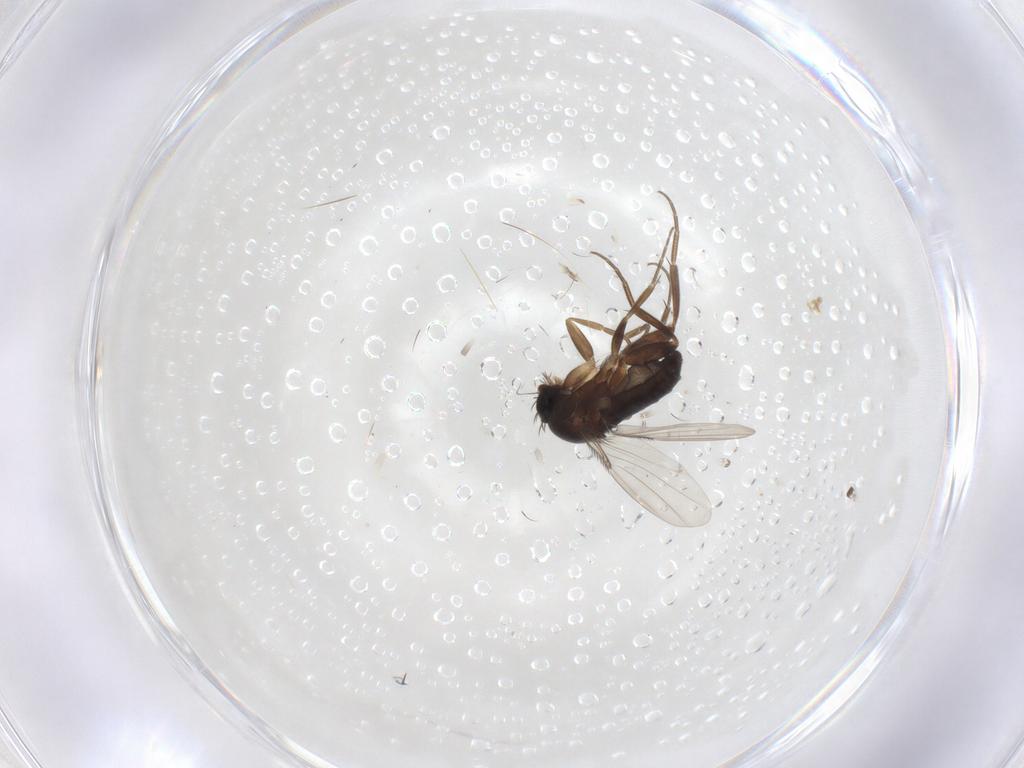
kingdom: Animalia
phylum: Arthropoda
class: Insecta
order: Diptera
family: Phoridae
